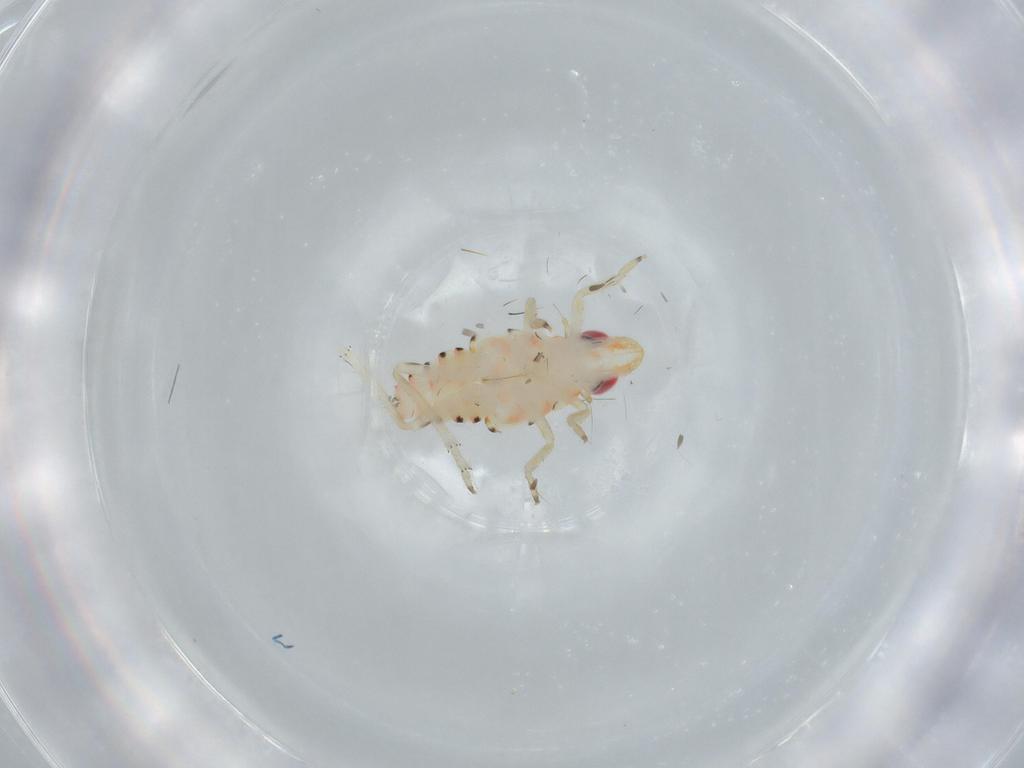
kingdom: Animalia
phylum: Arthropoda
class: Insecta
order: Hemiptera
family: Tropiduchidae
